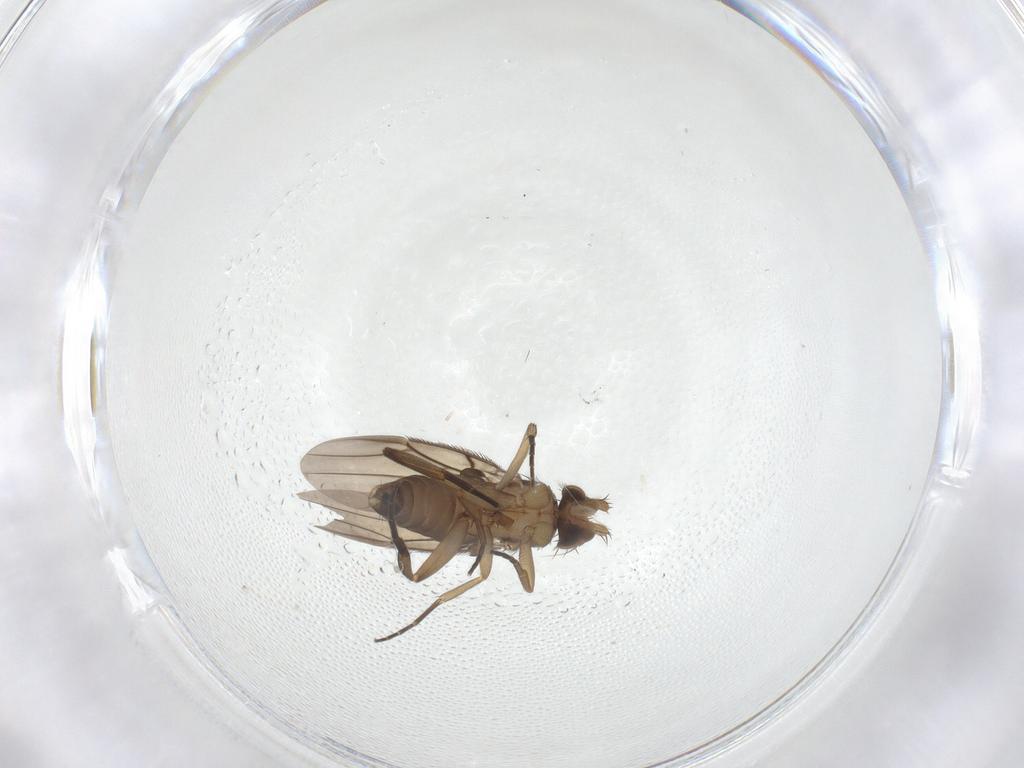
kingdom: Animalia
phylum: Arthropoda
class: Insecta
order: Diptera
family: Phoridae
